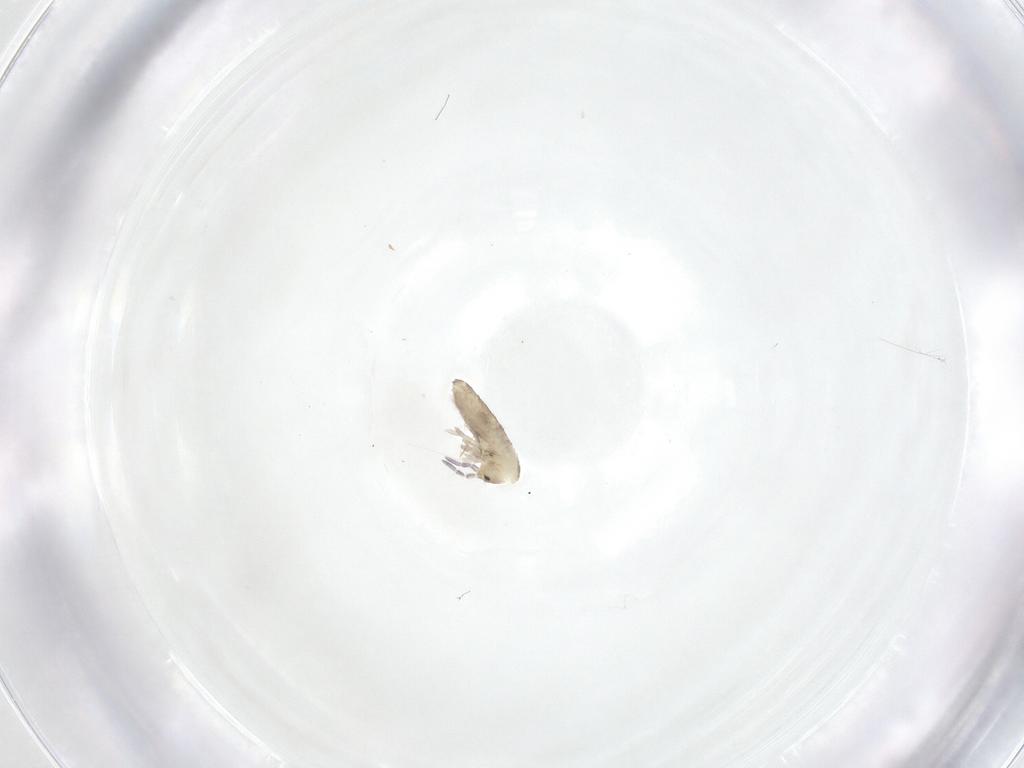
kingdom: Animalia
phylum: Arthropoda
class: Collembola
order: Entomobryomorpha
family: Entomobryidae
